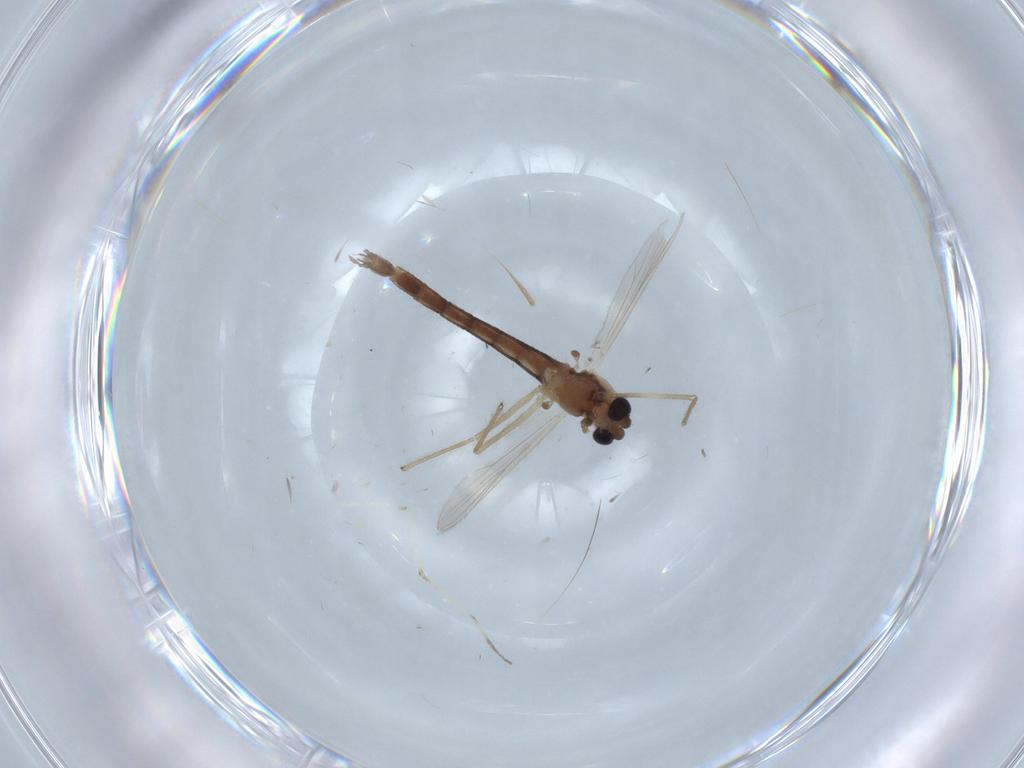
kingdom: Animalia
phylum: Arthropoda
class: Insecta
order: Diptera
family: Chironomidae
